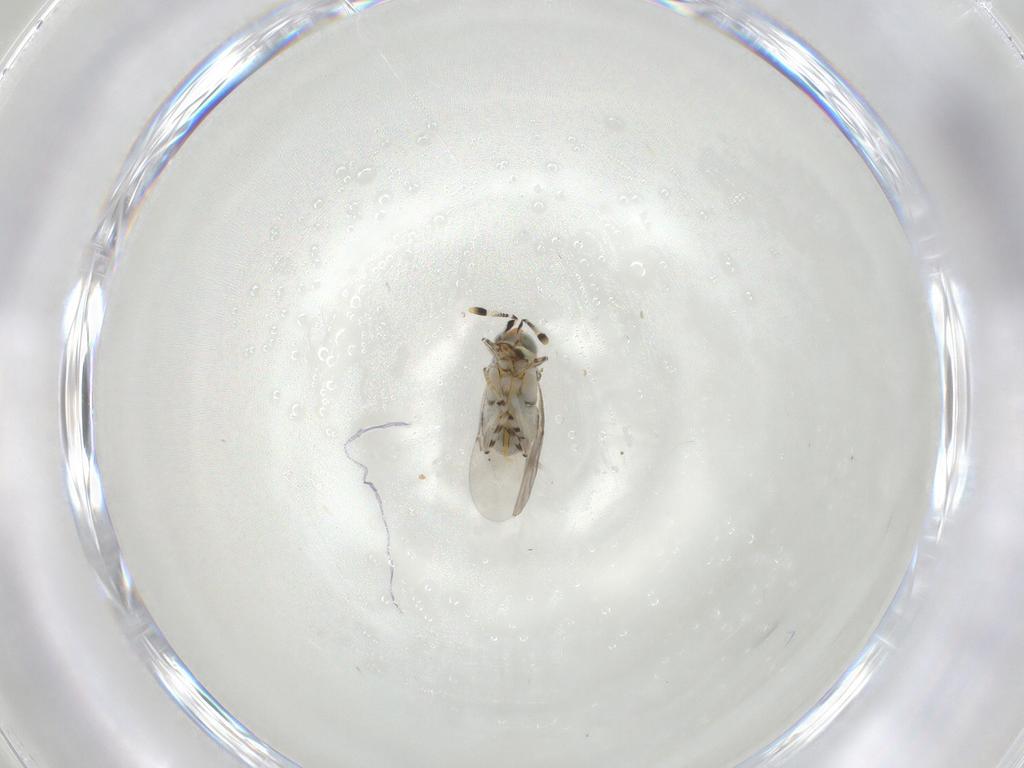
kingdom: Animalia
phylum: Arthropoda
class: Insecta
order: Hymenoptera
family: Encyrtidae
